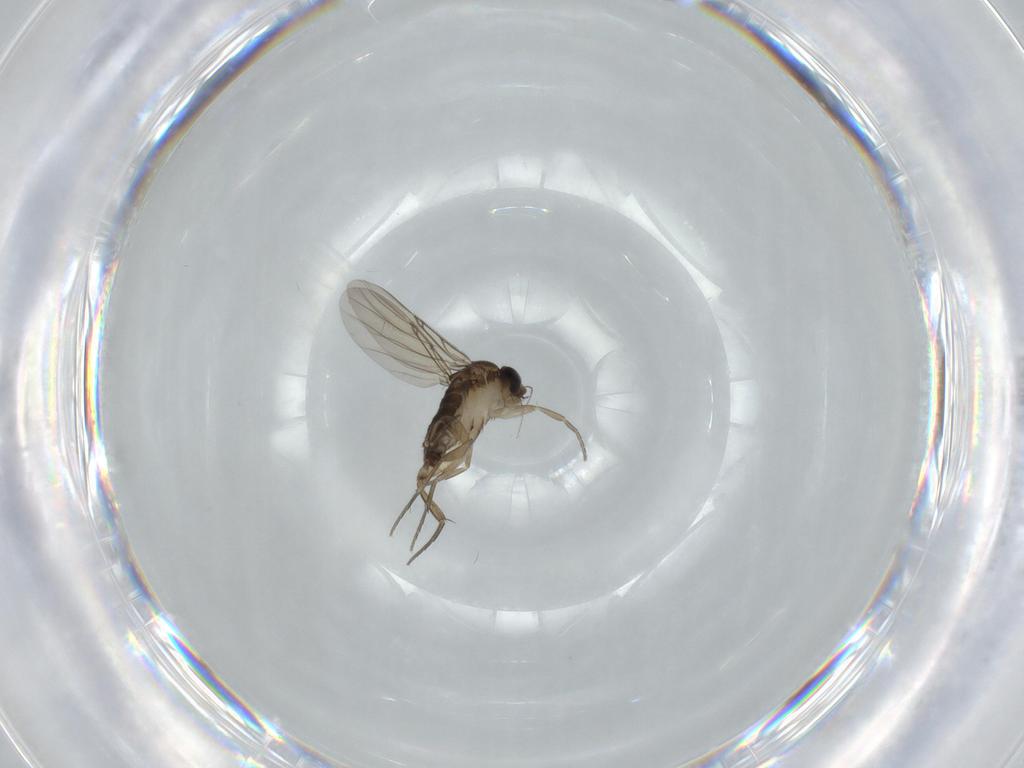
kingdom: Animalia
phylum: Arthropoda
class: Insecta
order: Diptera
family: Phoridae
